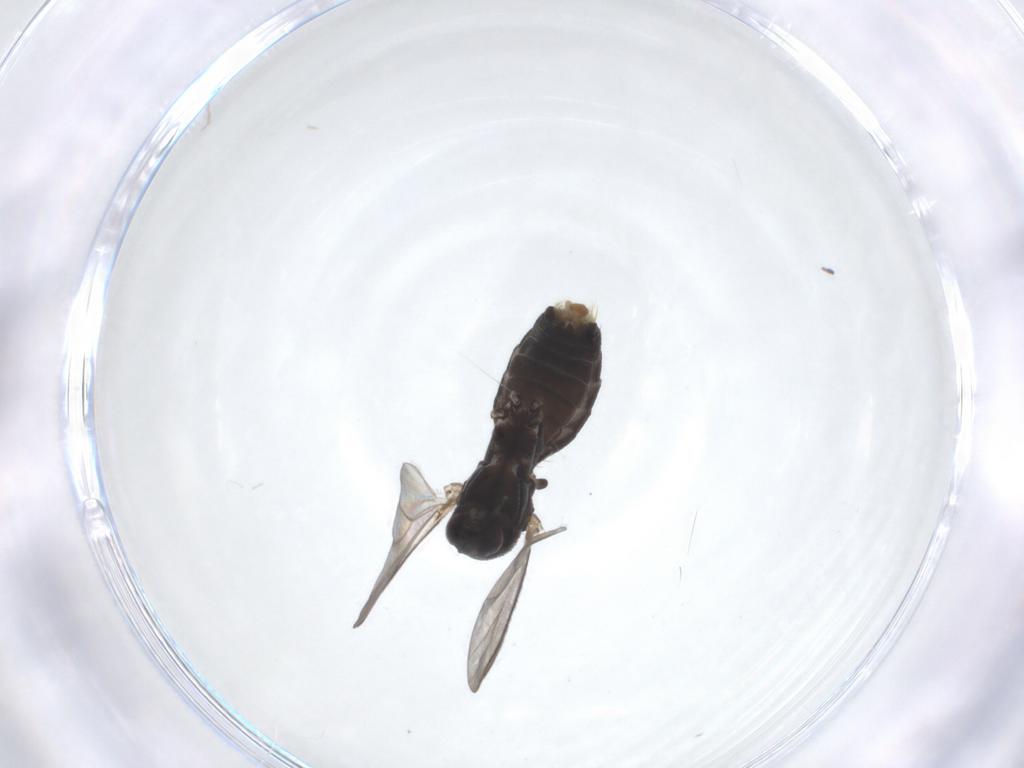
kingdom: Animalia
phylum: Arthropoda
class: Insecta
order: Diptera
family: Mycetophilidae
